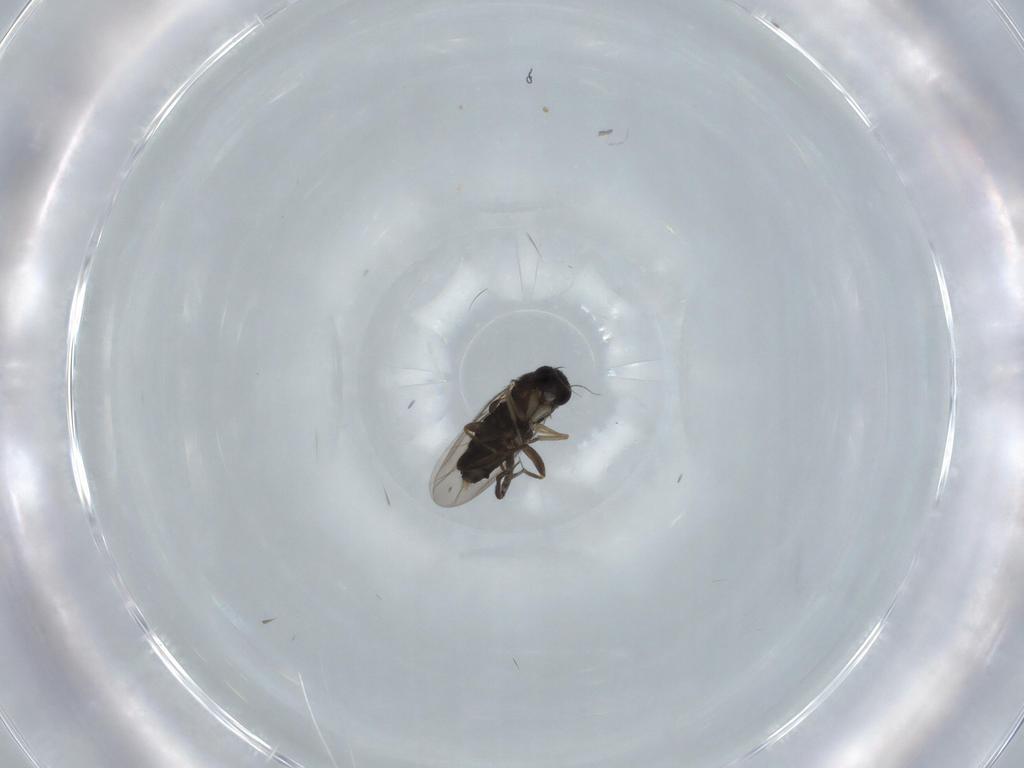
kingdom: Animalia
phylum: Arthropoda
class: Insecta
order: Diptera
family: Phoridae
